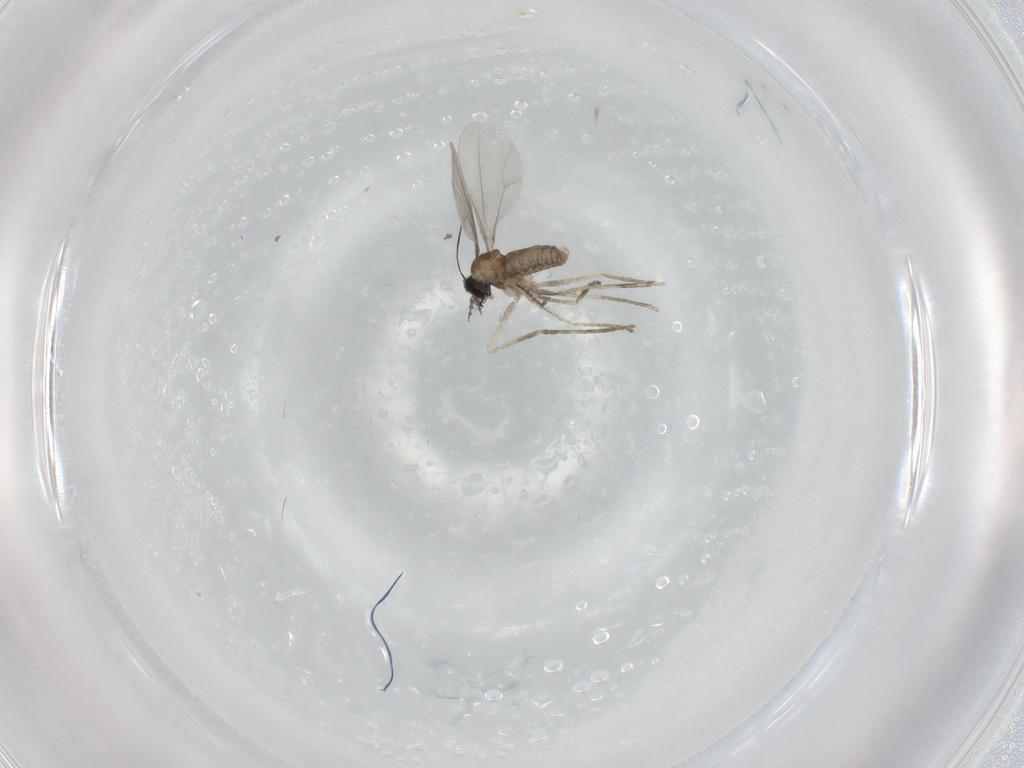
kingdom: Animalia
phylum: Arthropoda
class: Insecta
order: Diptera
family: Cecidomyiidae
